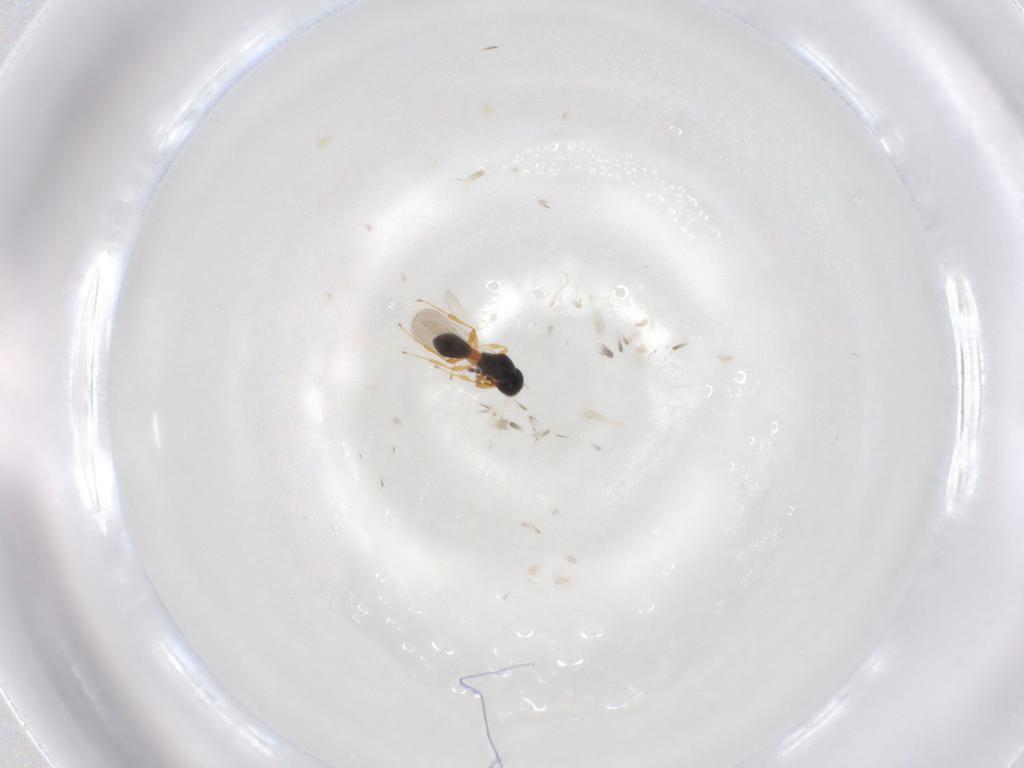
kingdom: Animalia
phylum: Arthropoda
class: Insecta
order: Hymenoptera
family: Platygastridae
